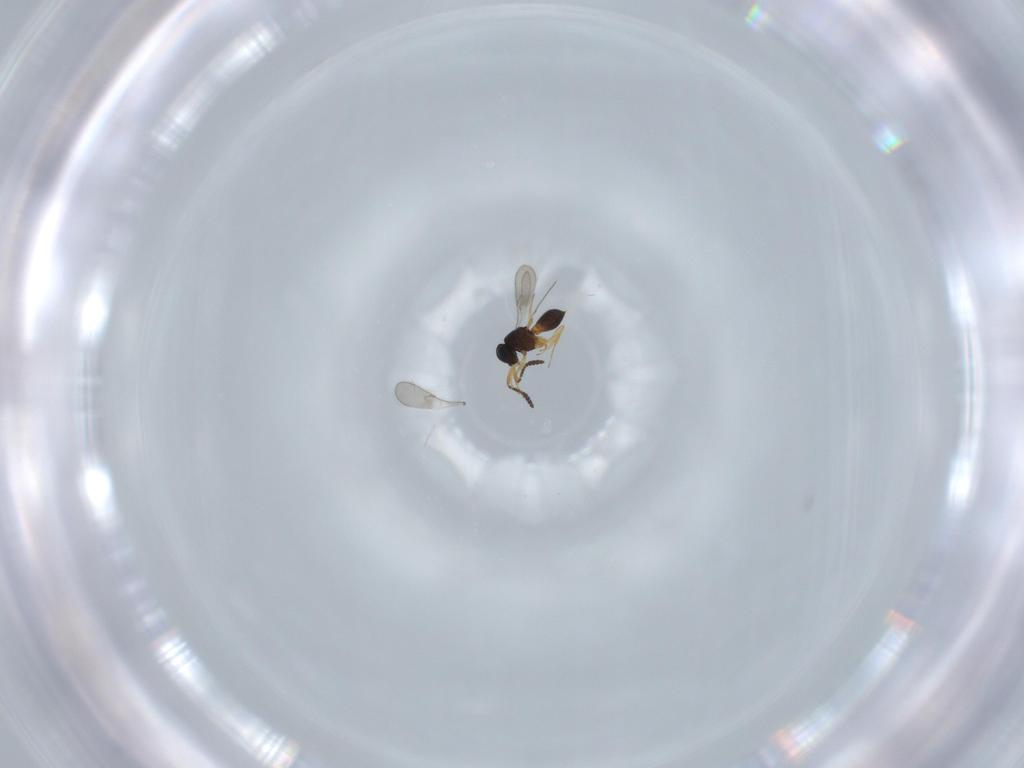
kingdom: Animalia
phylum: Arthropoda
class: Insecta
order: Hymenoptera
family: Scelionidae
